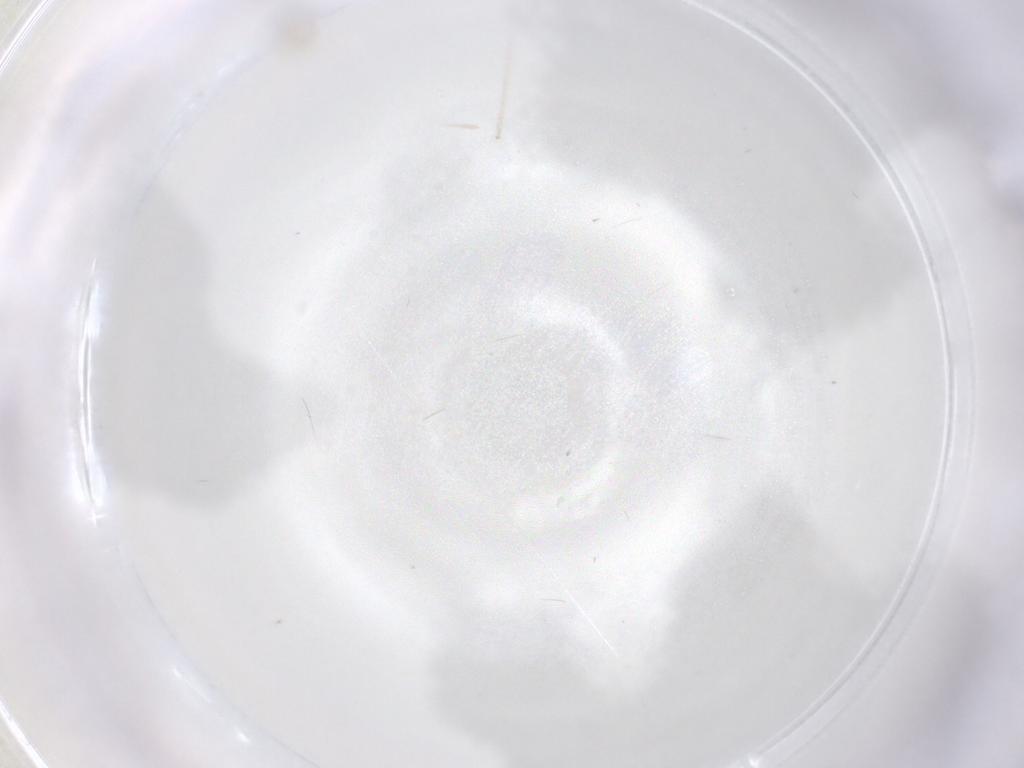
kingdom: Animalia
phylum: Arthropoda
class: Insecta
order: Diptera
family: Cecidomyiidae
